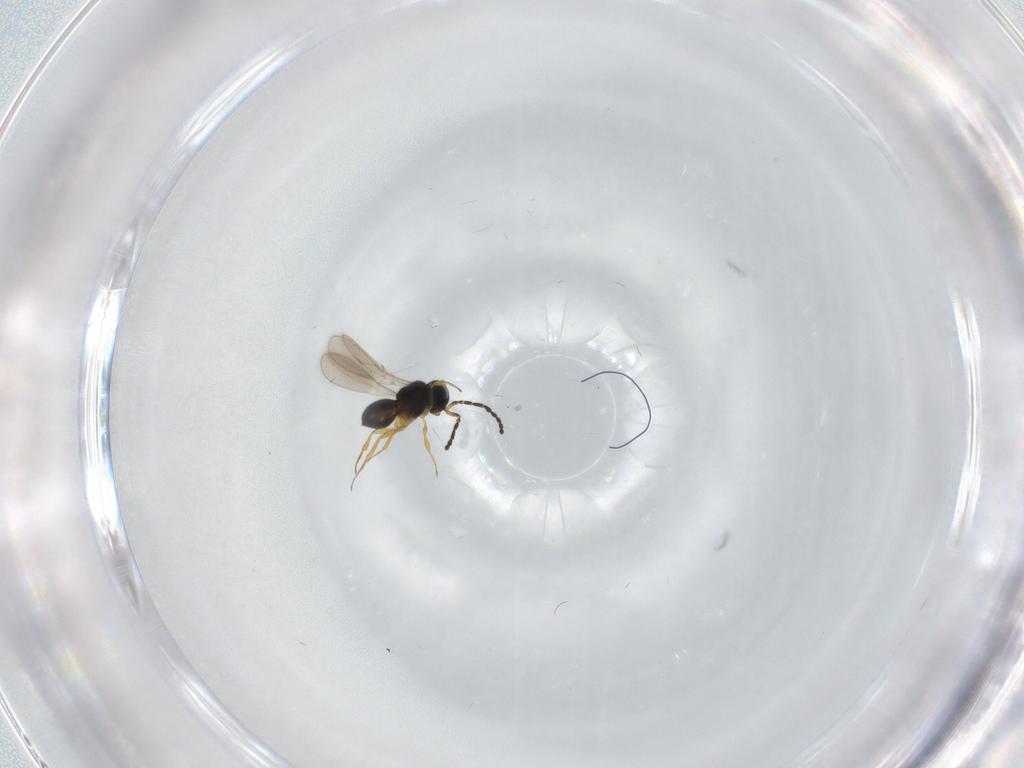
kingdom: Animalia
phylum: Arthropoda
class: Insecta
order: Hymenoptera
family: Scelionidae
